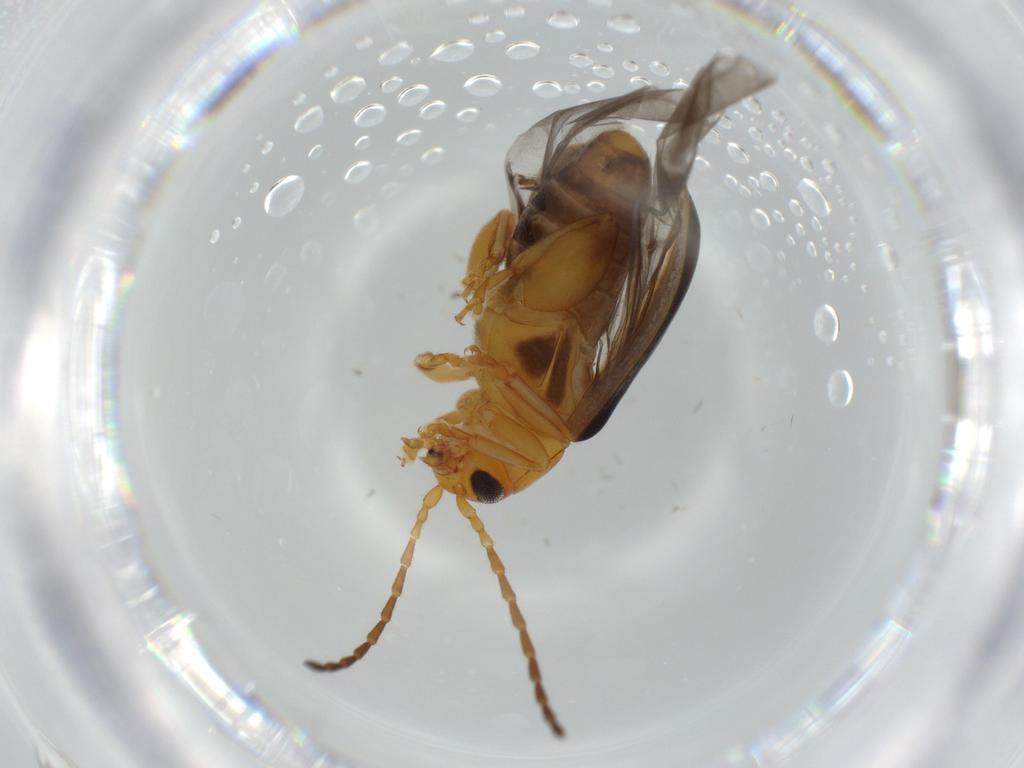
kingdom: Animalia
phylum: Arthropoda
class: Insecta
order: Coleoptera
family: Chrysomelidae
